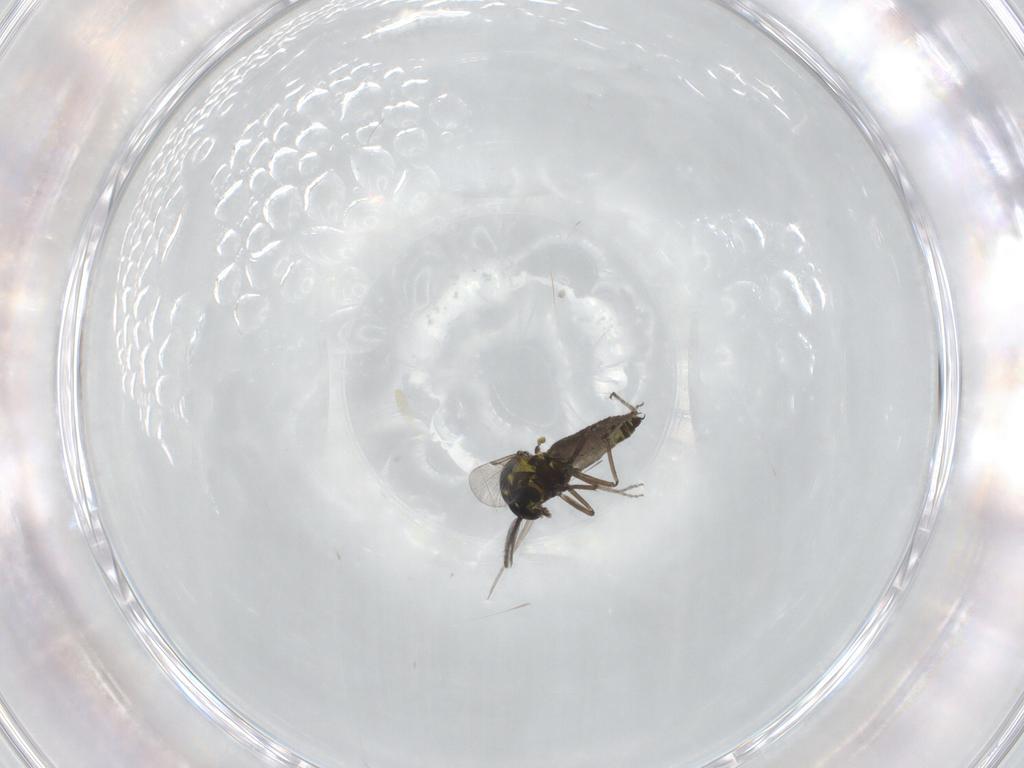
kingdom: Animalia
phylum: Arthropoda
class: Insecta
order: Diptera
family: Ceratopogonidae
